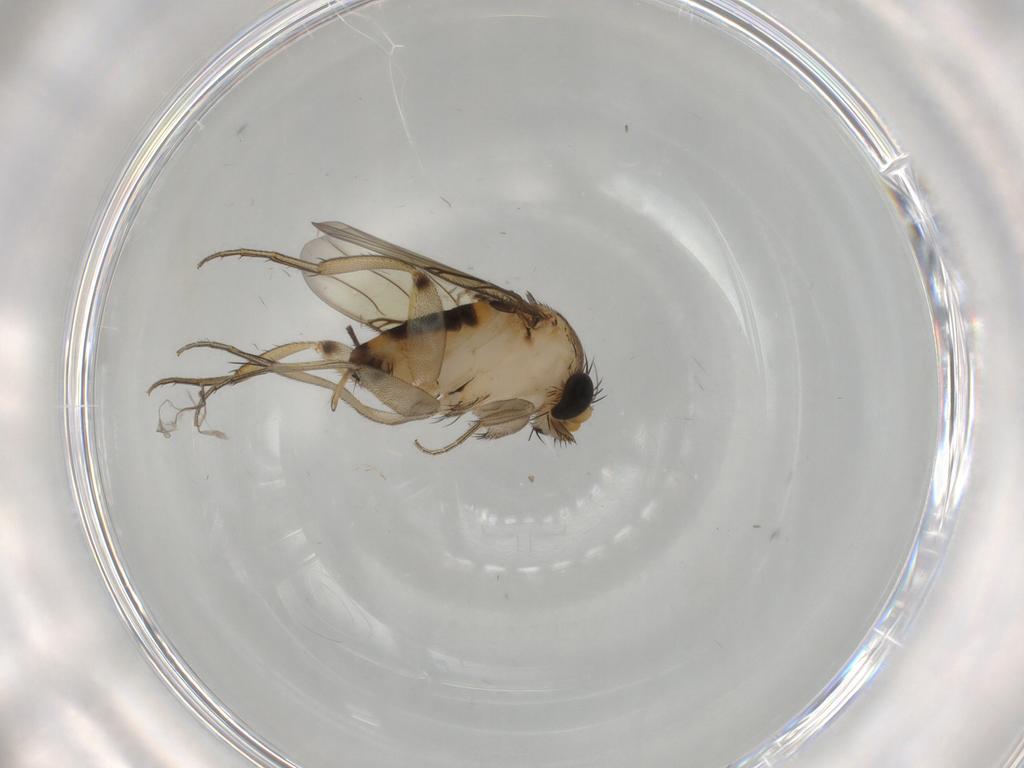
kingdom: Animalia
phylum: Arthropoda
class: Insecta
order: Diptera
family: Phoridae
